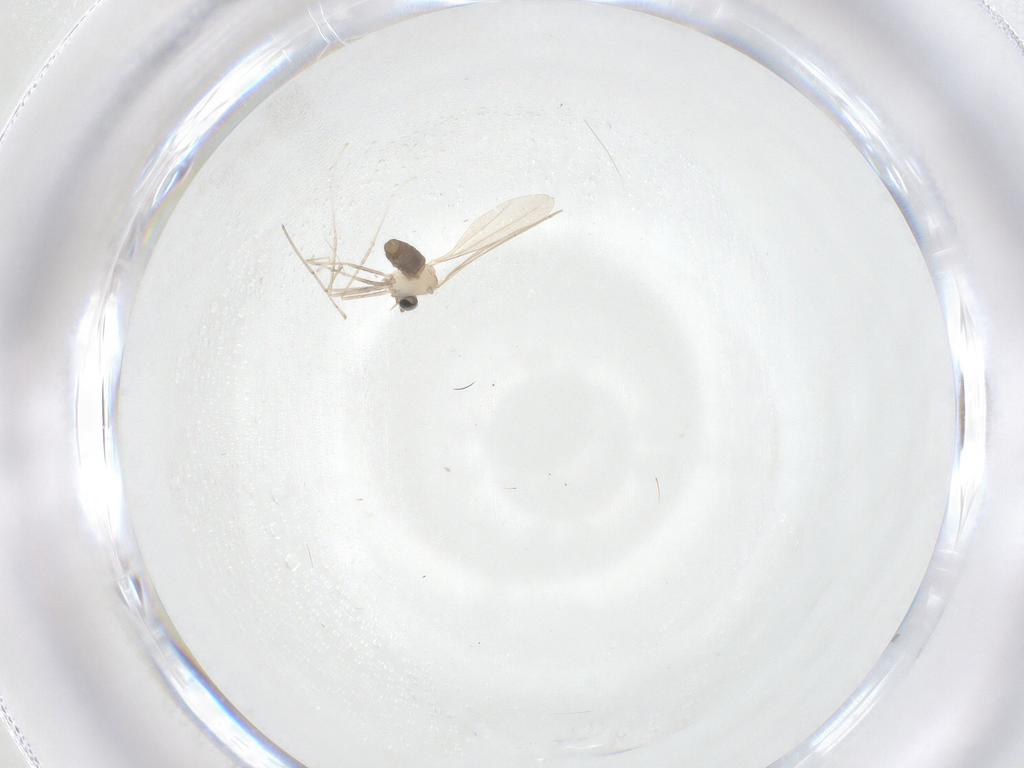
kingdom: Animalia
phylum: Arthropoda
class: Insecta
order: Diptera
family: Cecidomyiidae
